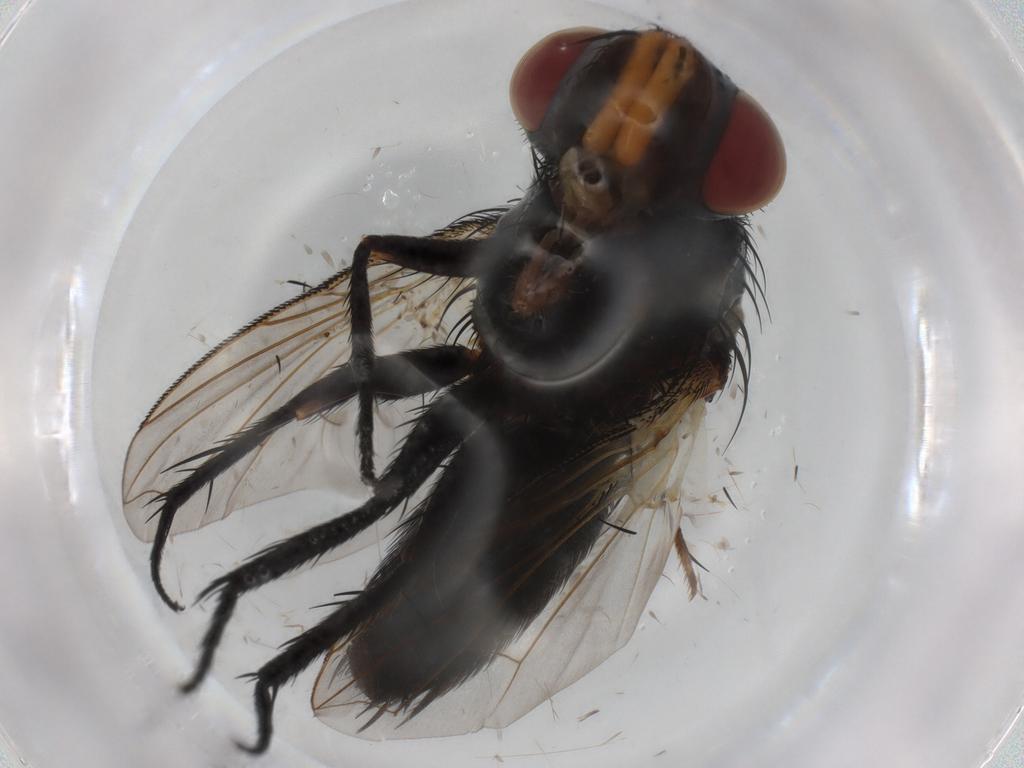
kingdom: Animalia
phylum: Arthropoda
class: Insecta
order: Diptera
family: Tachinidae
